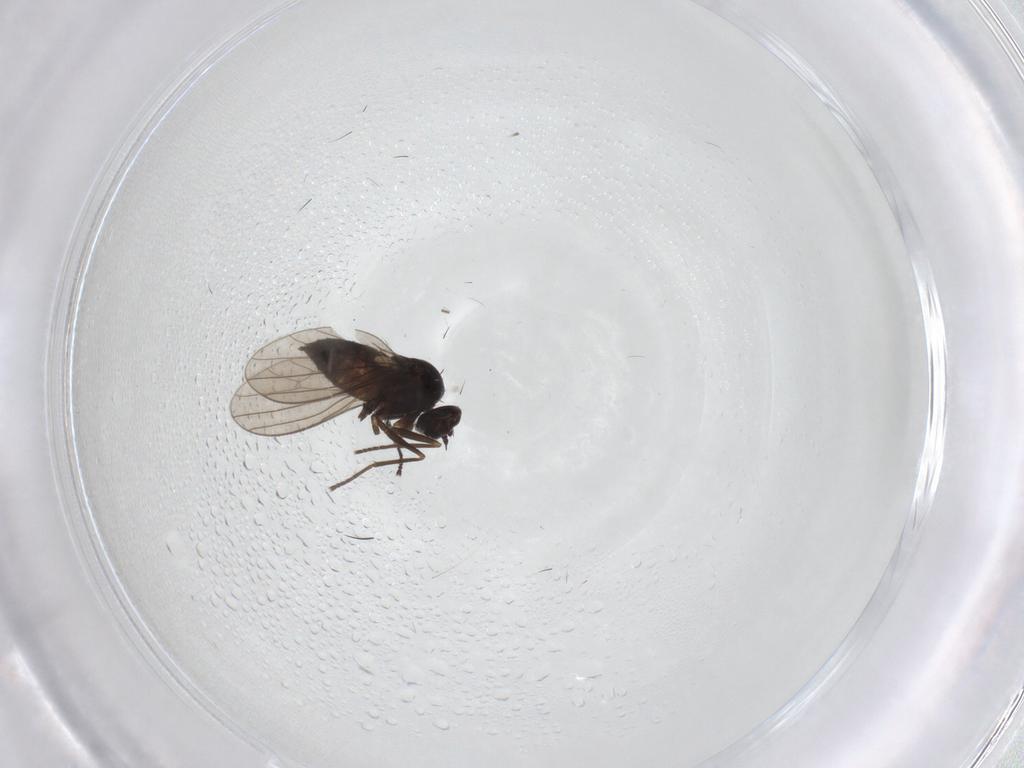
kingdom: Animalia
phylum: Arthropoda
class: Insecta
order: Diptera
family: Dolichopodidae
